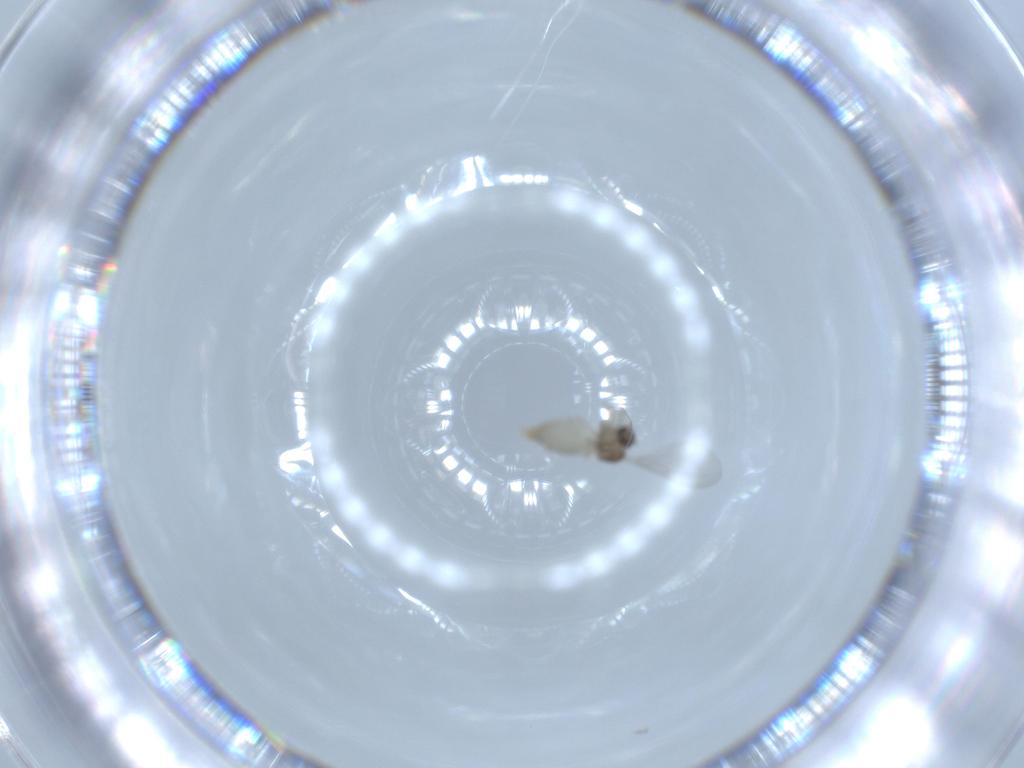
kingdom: Animalia
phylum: Arthropoda
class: Insecta
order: Diptera
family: Cecidomyiidae
